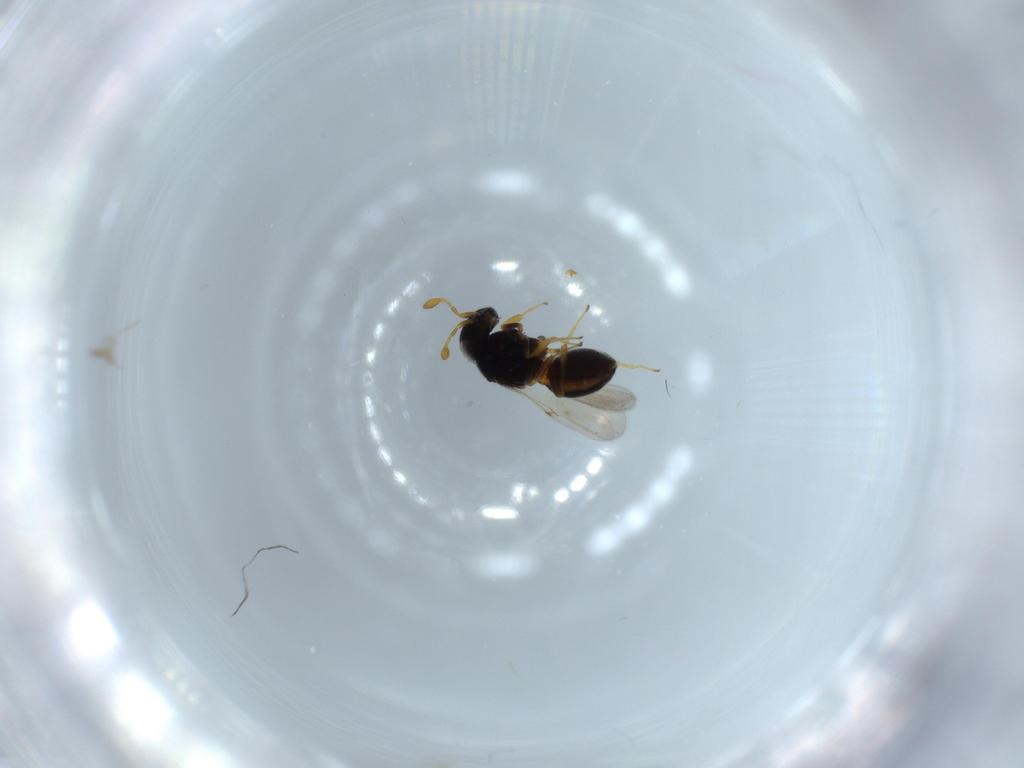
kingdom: Animalia
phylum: Arthropoda
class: Insecta
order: Hymenoptera
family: Scelionidae
